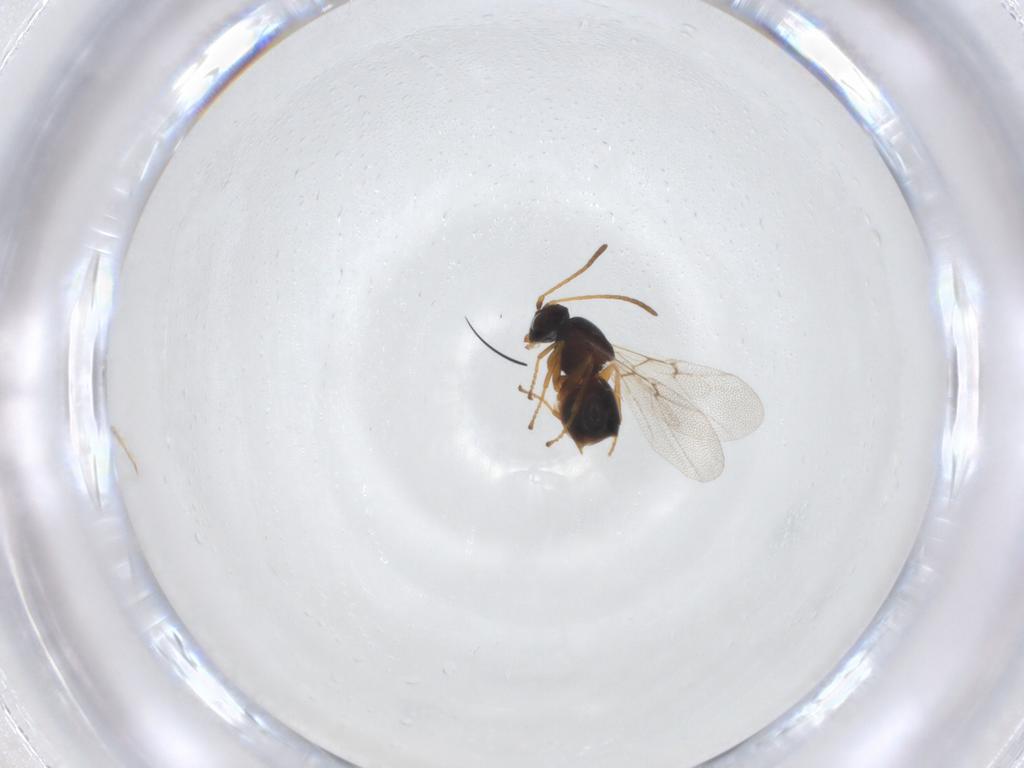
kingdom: Animalia
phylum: Arthropoda
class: Insecta
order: Hymenoptera
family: Cynipidae
